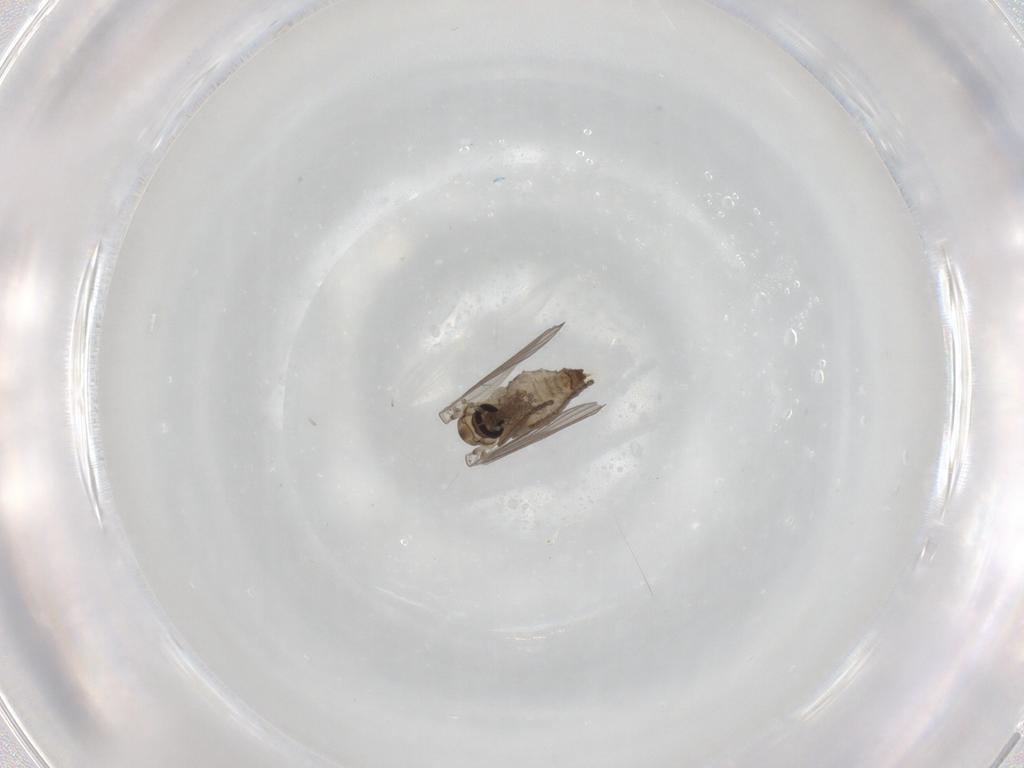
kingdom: Animalia
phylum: Arthropoda
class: Insecta
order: Diptera
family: Psychodidae
